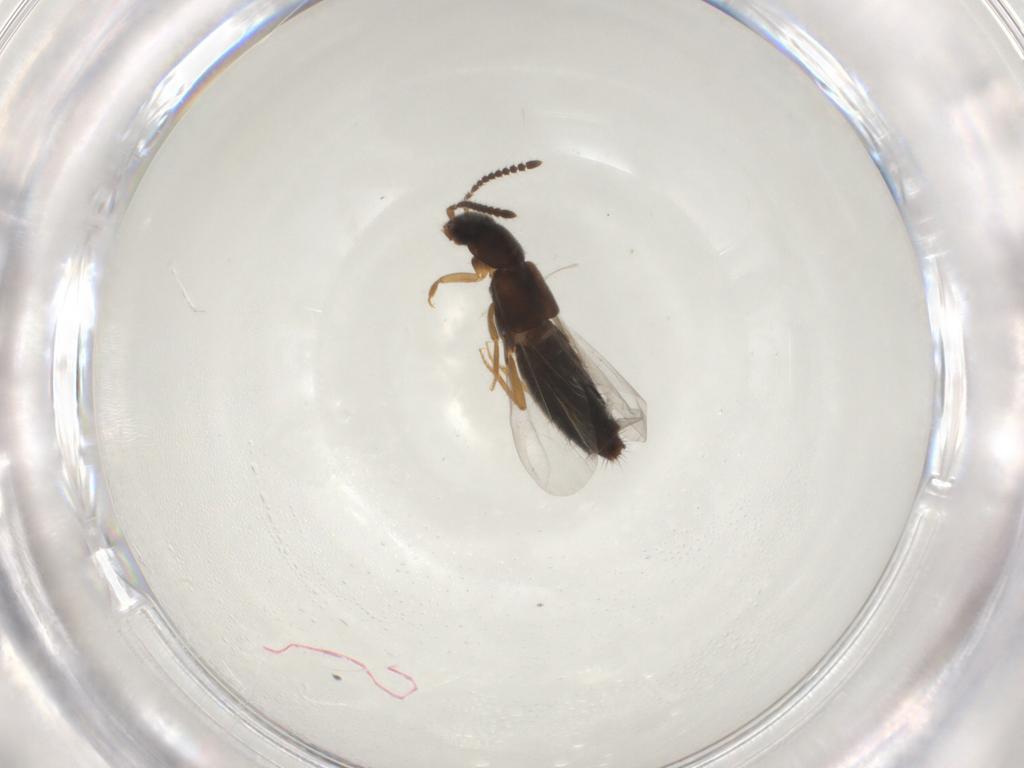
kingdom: Animalia
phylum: Arthropoda
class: Insecta
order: Coleoptera
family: Staphylinidae
